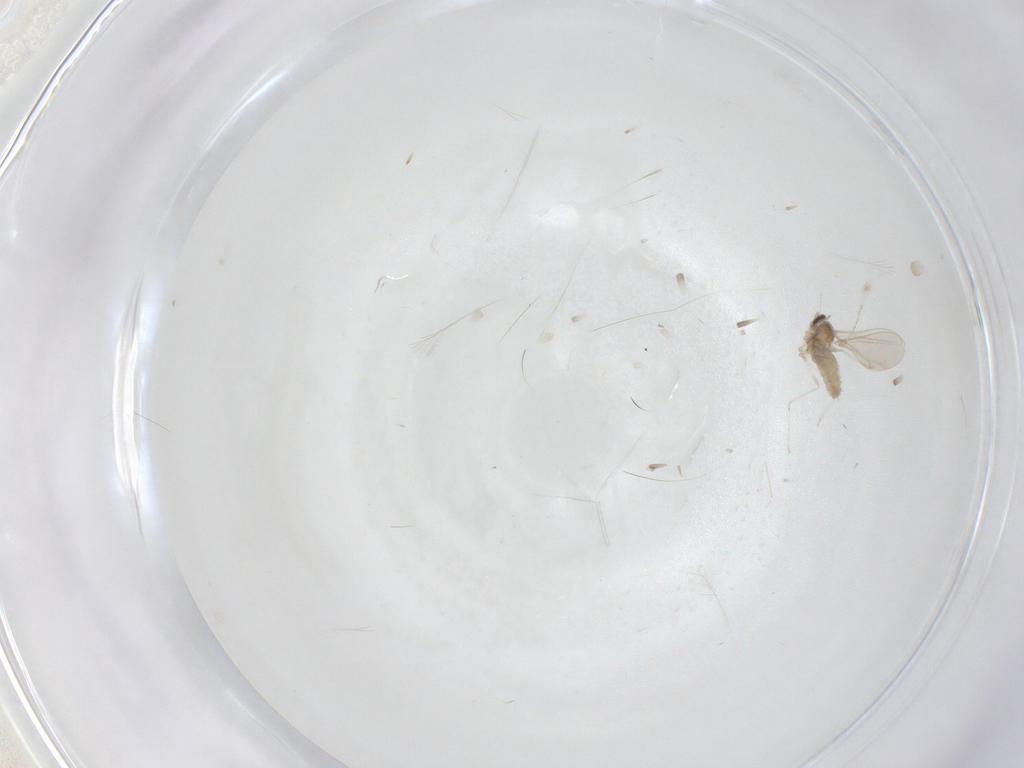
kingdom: Animalia
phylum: Arthropoda
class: Insecta
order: Diptera
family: Cecidomyiidae
